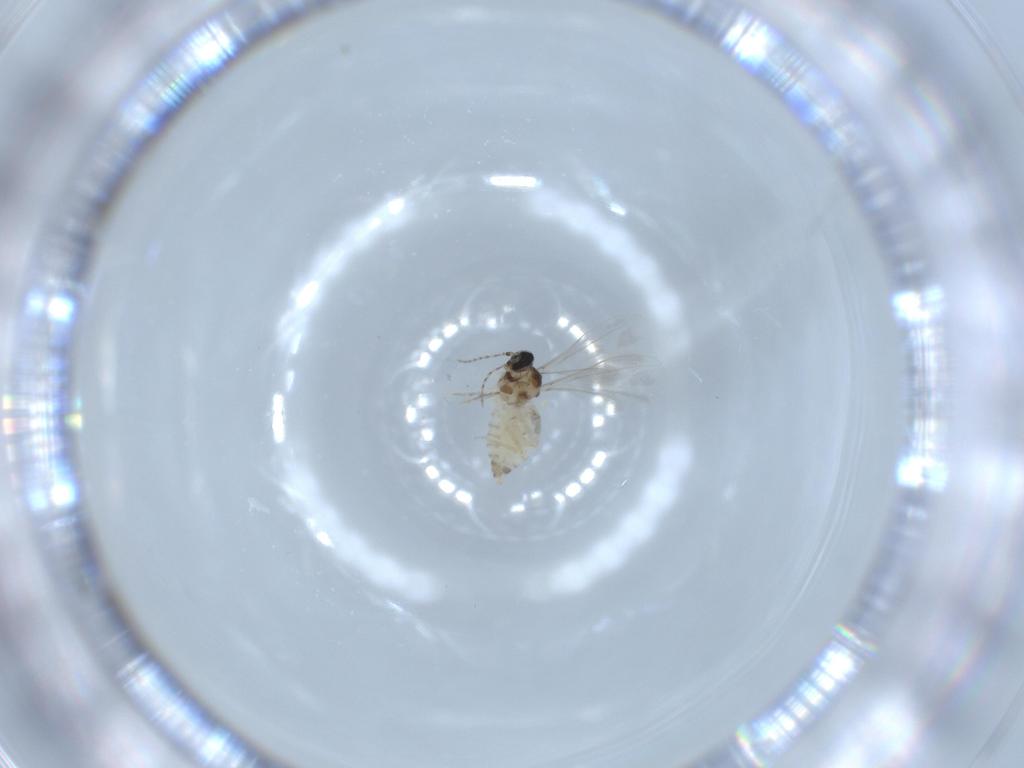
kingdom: Animalia
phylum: Arthropoda
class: Insecta
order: Diptera
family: Cecidomyiidae
